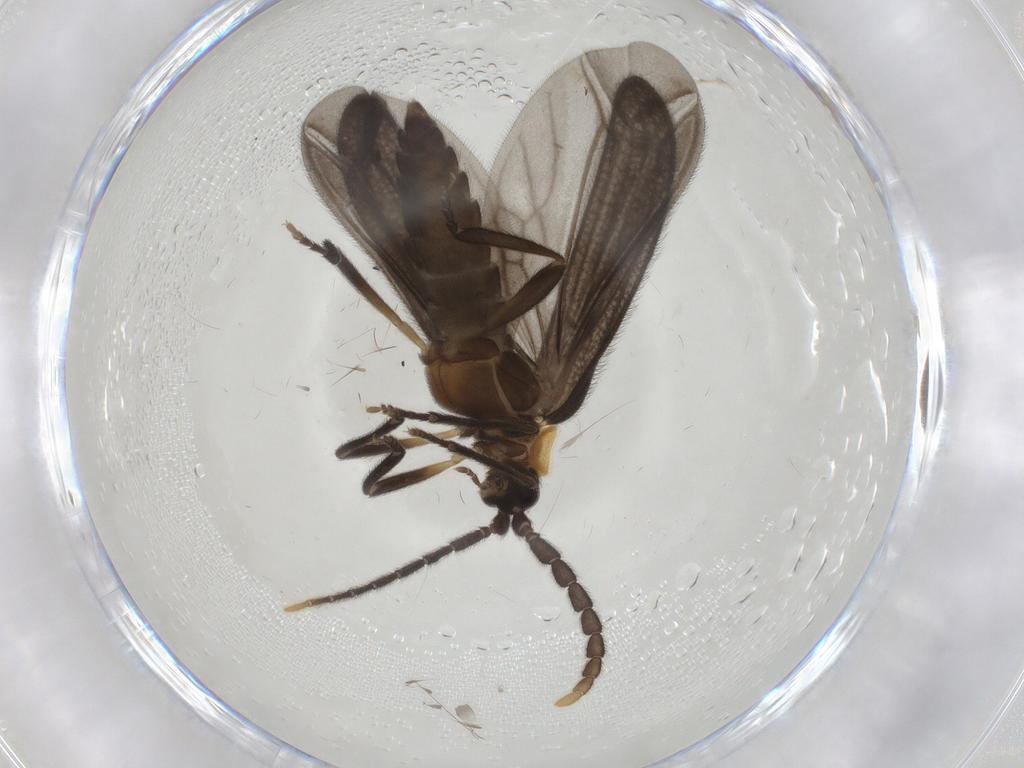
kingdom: Animalia
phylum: Arthropoda
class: Insecta
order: Coleoptera
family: Lycidae
